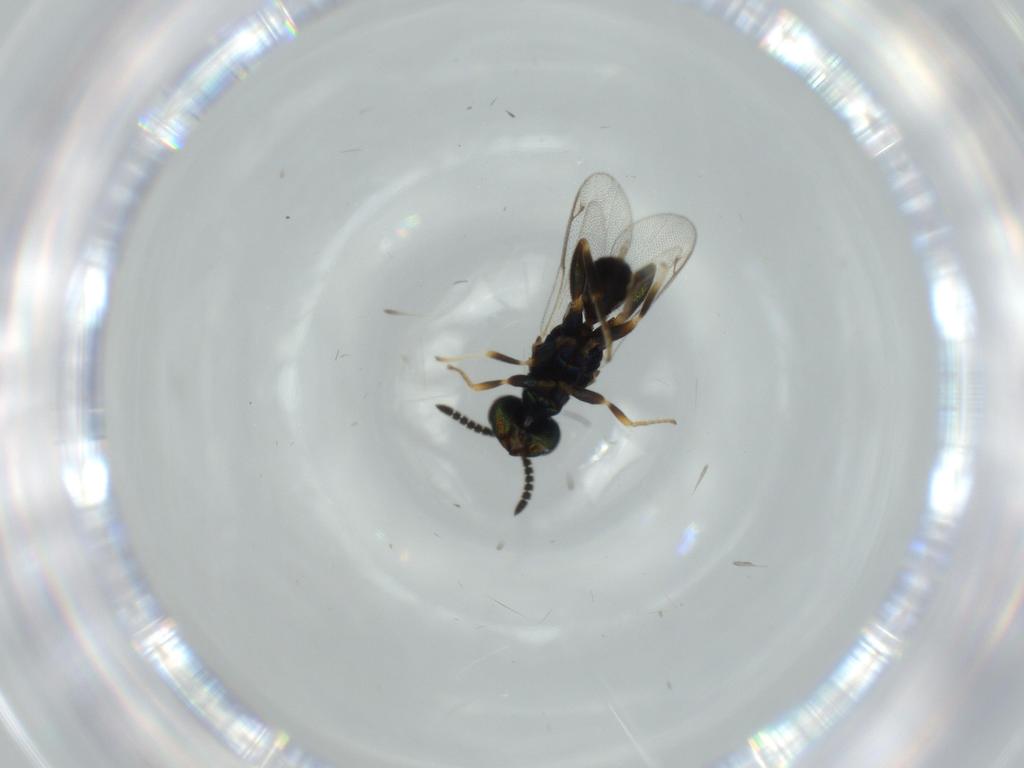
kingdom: Animalia
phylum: Arthropoda
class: Insecta
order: Hymenoptera
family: Cleonyminae
